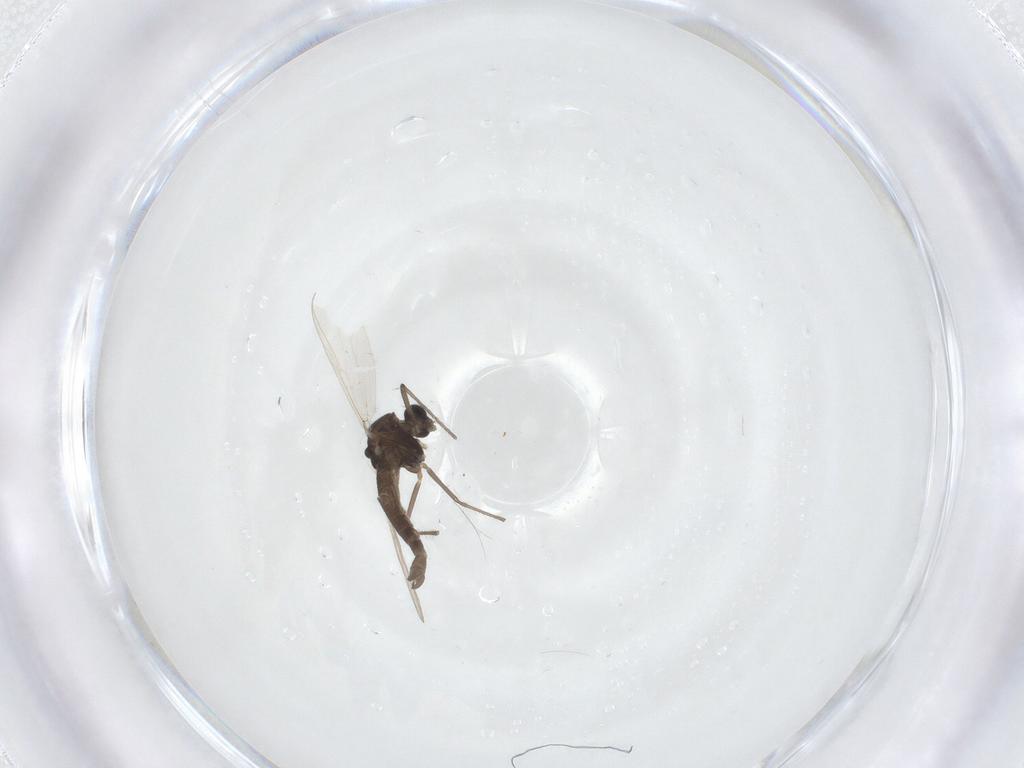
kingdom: Animalia
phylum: Arthropoda
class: Insecta
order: Diptera
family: Chironomidae
